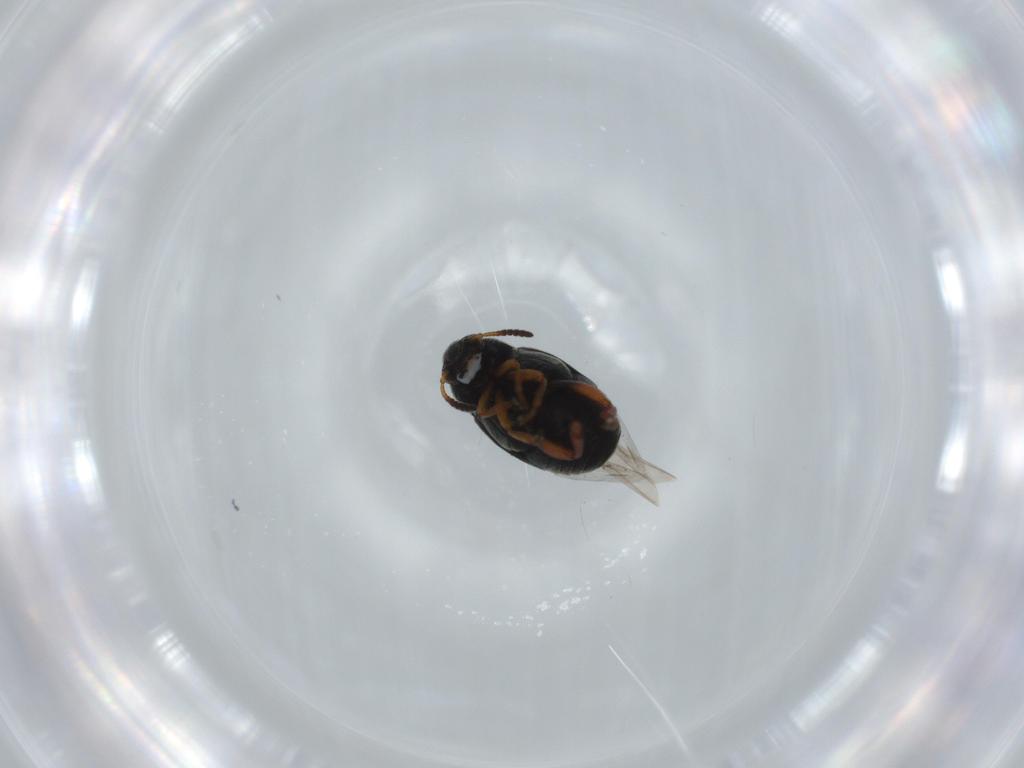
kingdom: Animalia
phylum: Arthropoda
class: Insecta
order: Coleoptera
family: Chrysomelidae
